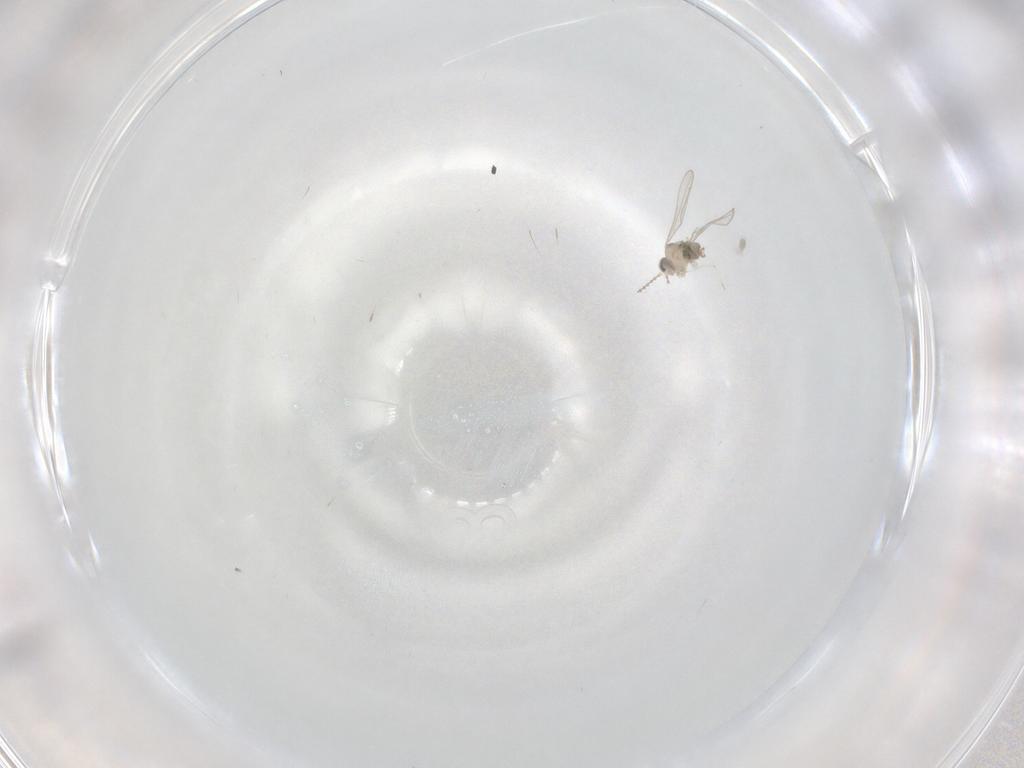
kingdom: Animalia
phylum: Arthropoda
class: Insecta
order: Diptera
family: Cecidomyiidae
